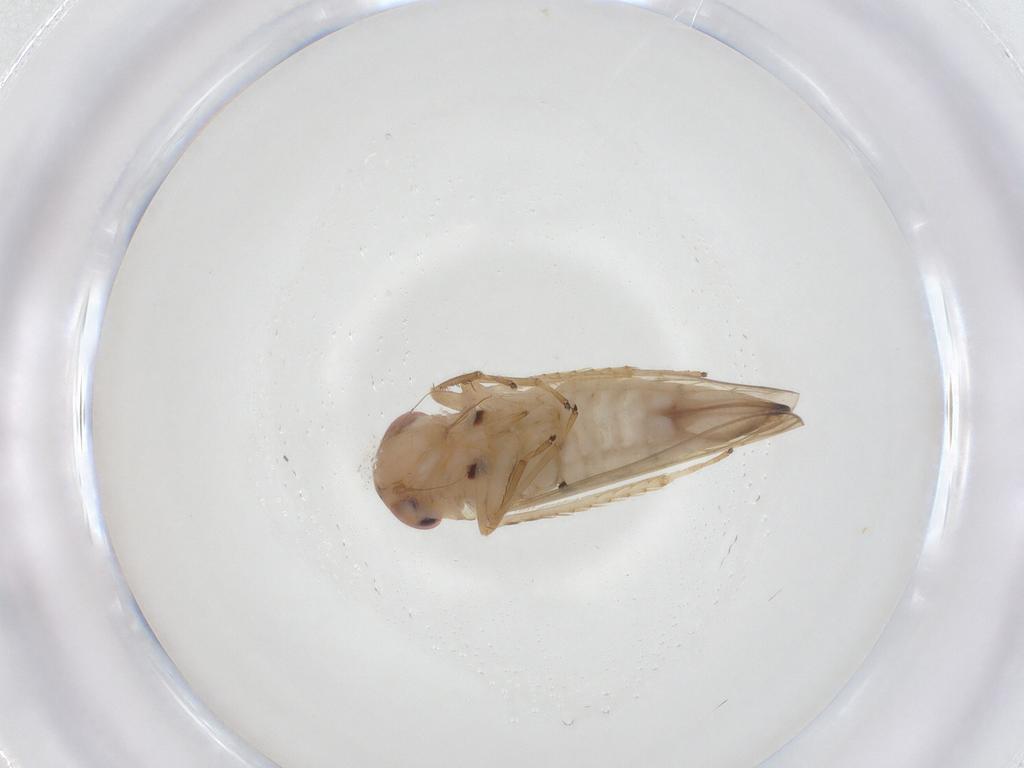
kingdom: Animalia
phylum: Arthropoda
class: Insecta
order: Hemiptera
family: Cicadellidae
